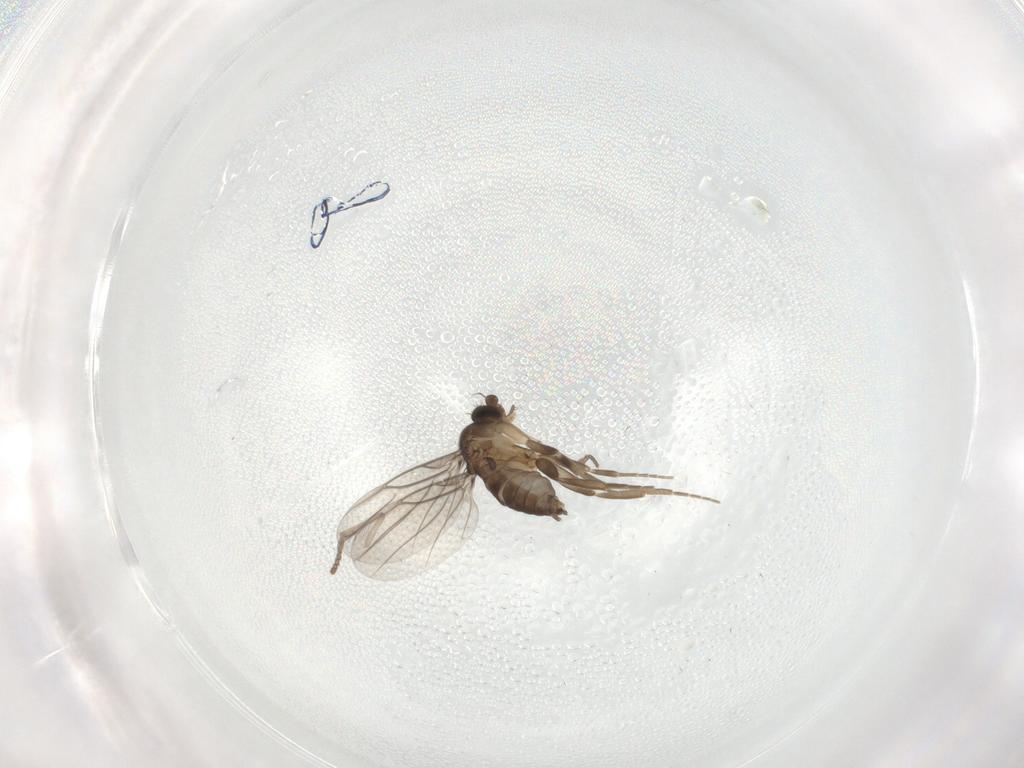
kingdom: Animalia
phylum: Arthropoda
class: Insecta
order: Diptera
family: Phoridae
